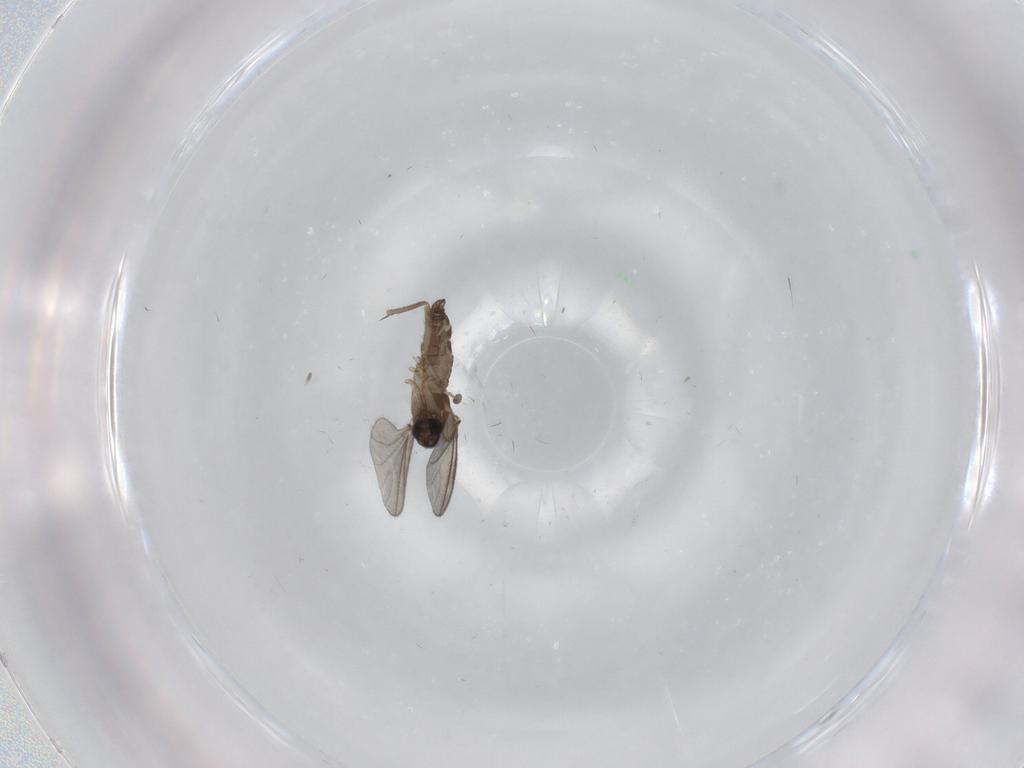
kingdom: Animalia
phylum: Arthropoda
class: Insecta
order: Diptera
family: Sciaridae
